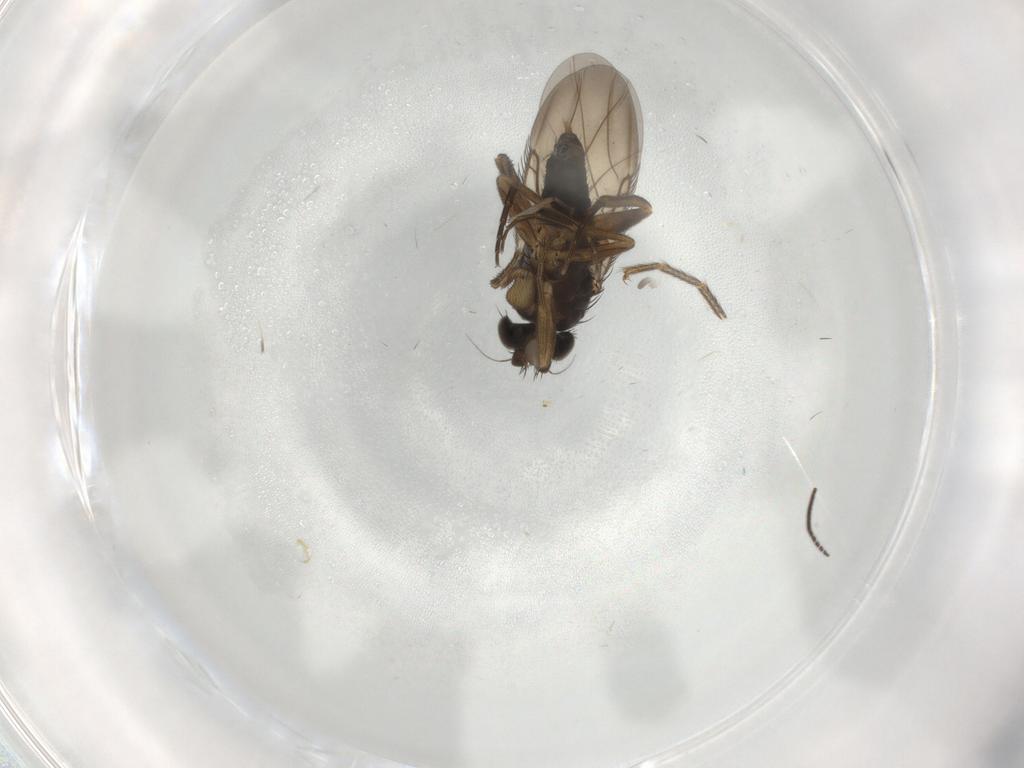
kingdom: Animalia
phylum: Arthropoda
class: Insecta
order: Diptera
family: Phoridae
